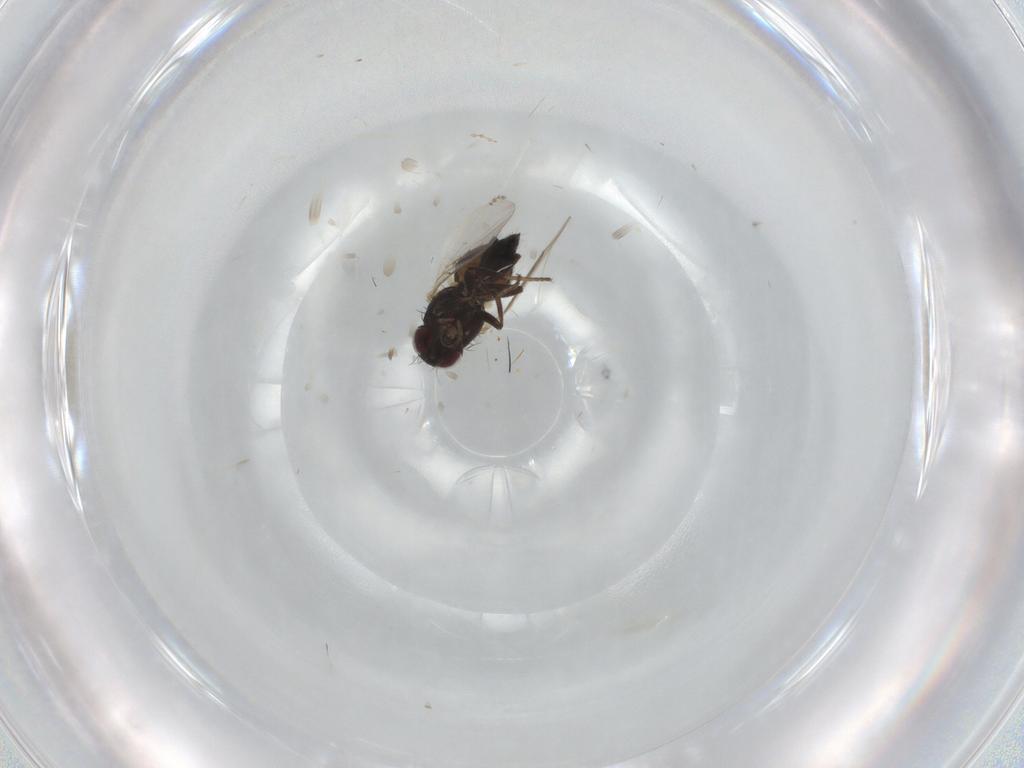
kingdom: Animalia
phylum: Arthropoda
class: Insecta
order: Diptera
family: Agromyzidae
